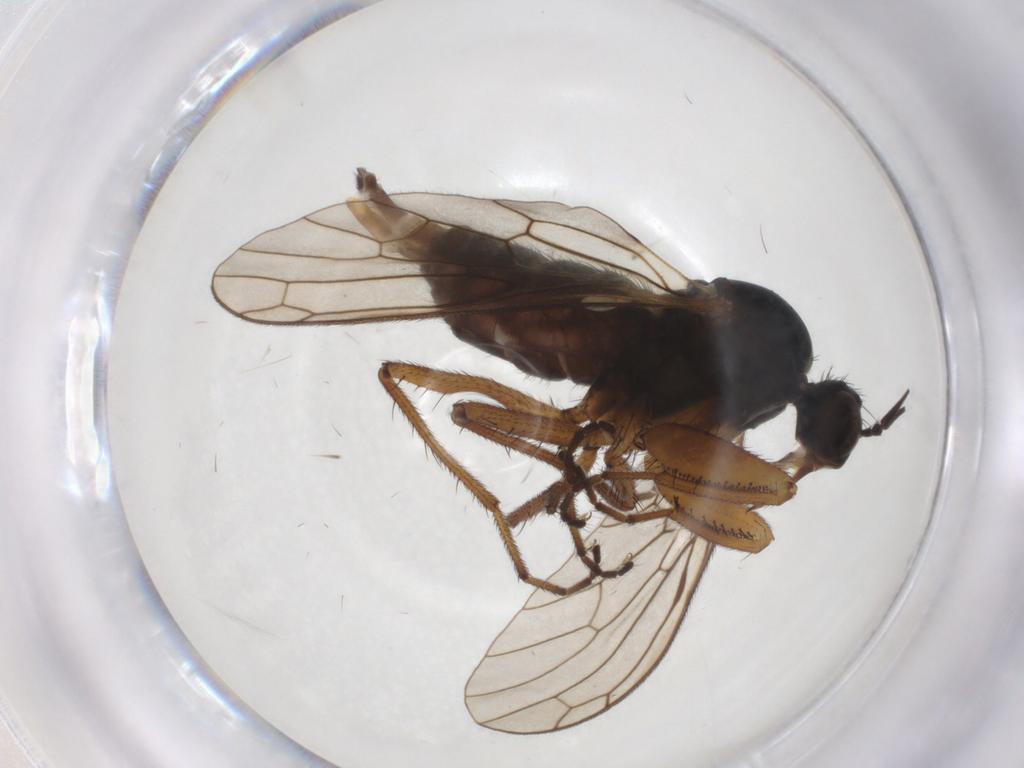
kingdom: Animalia
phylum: Arthropoda
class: Insecta
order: Diptera
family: Empididae
